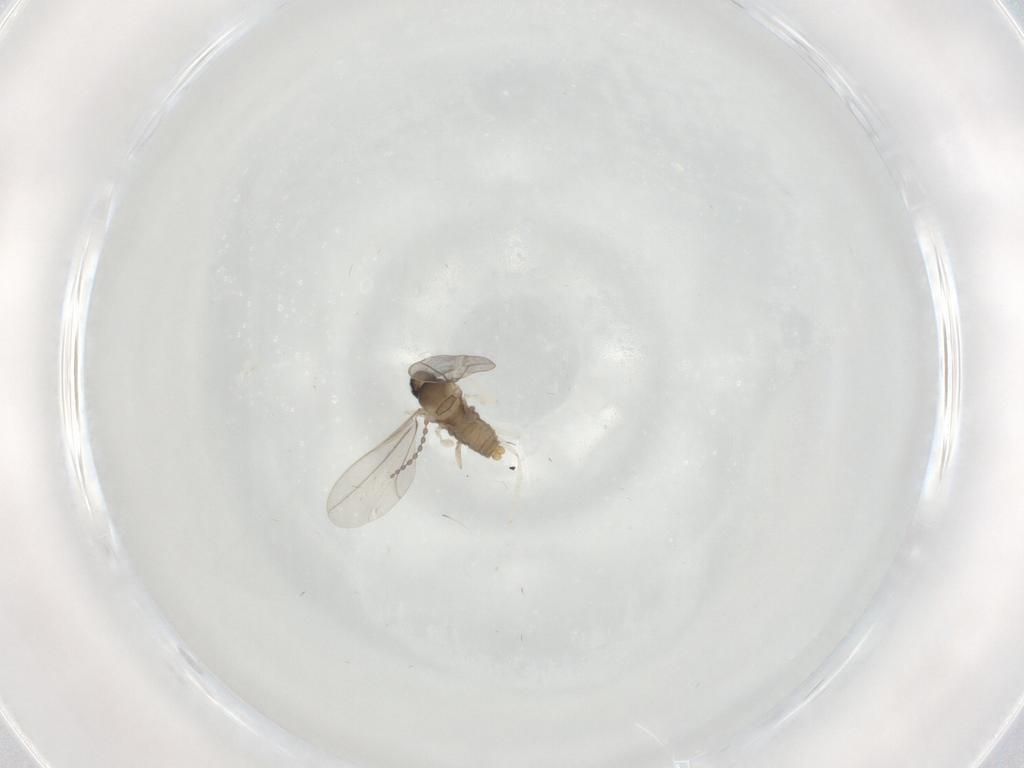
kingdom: Animalia
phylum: Arthropoda
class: Insecta
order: Diptera
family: Cecidomyiidae
